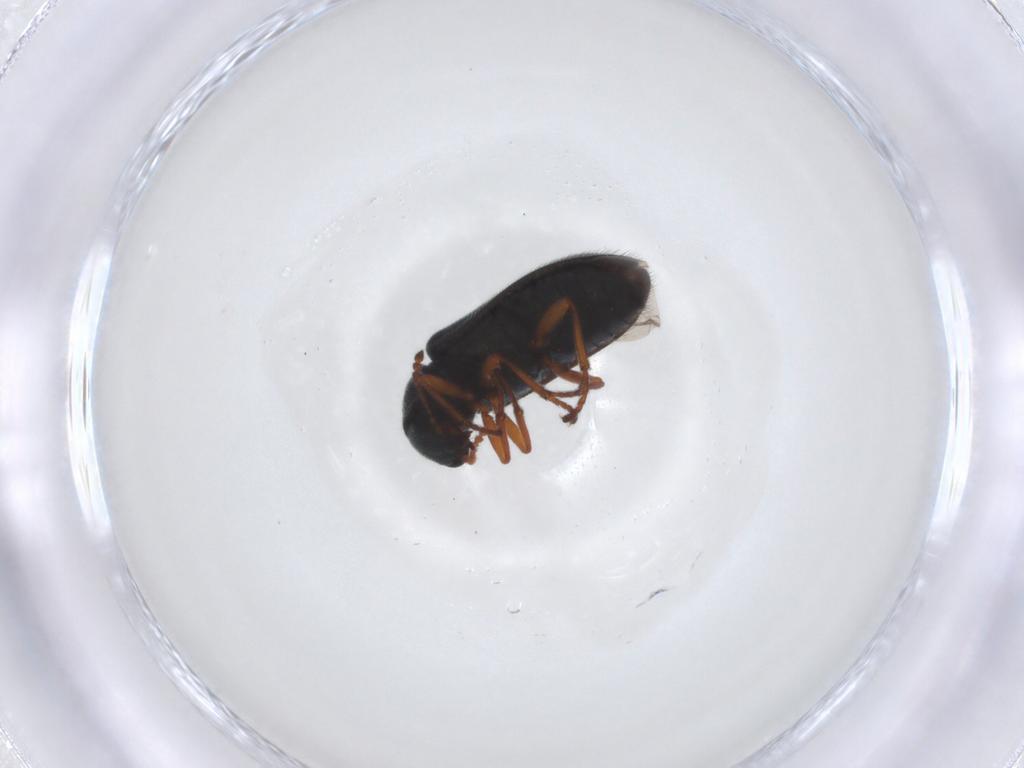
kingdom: Animalia
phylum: Arthropoda
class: Insecta
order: Coleoptera
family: Melyridae
